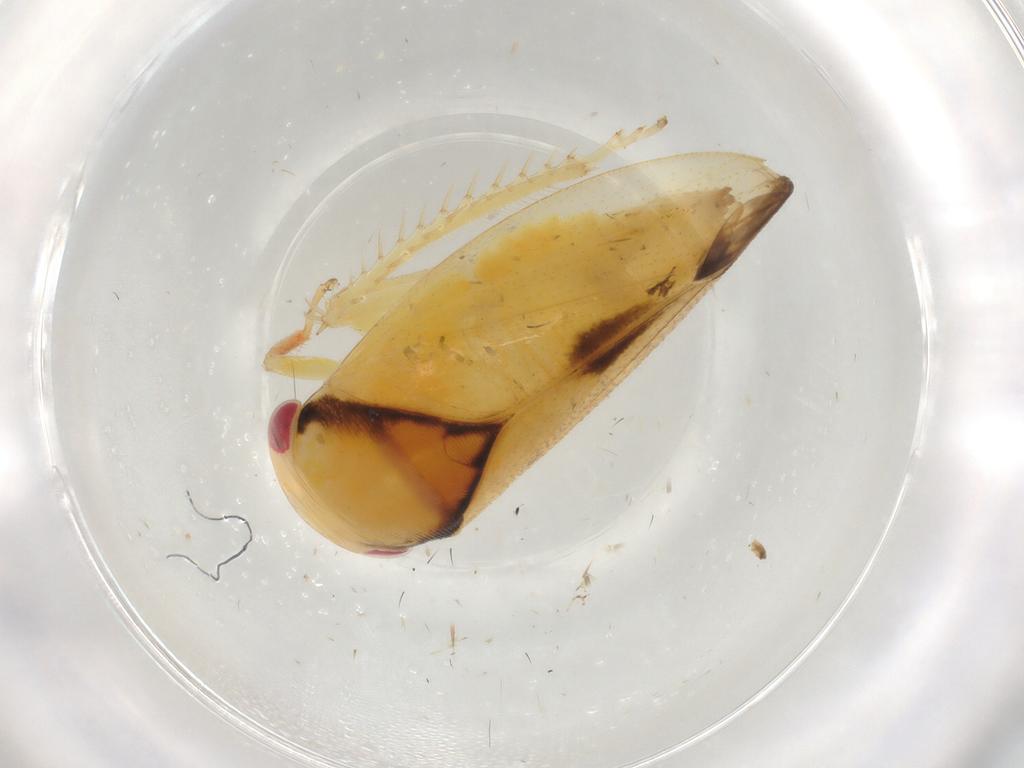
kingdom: Animalia
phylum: Arthropoda
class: Insecta
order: Hemiptera
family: Cicadellidae
